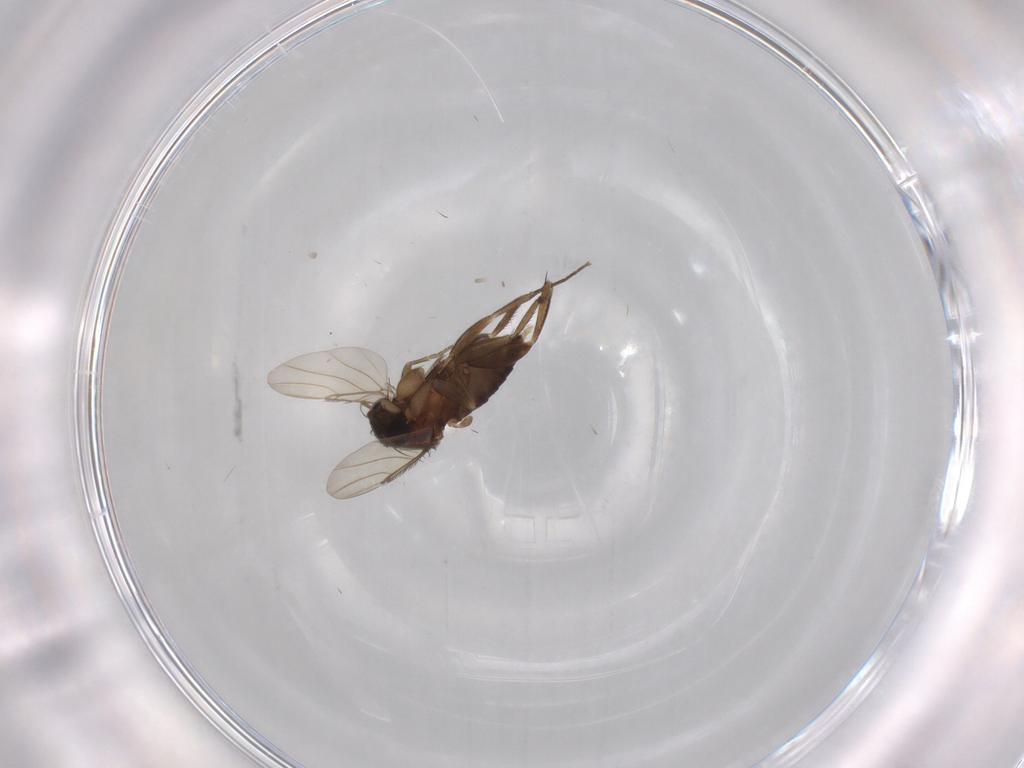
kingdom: Animalia
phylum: Arthropoda
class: Insecta
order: Diptera
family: Phoridae
